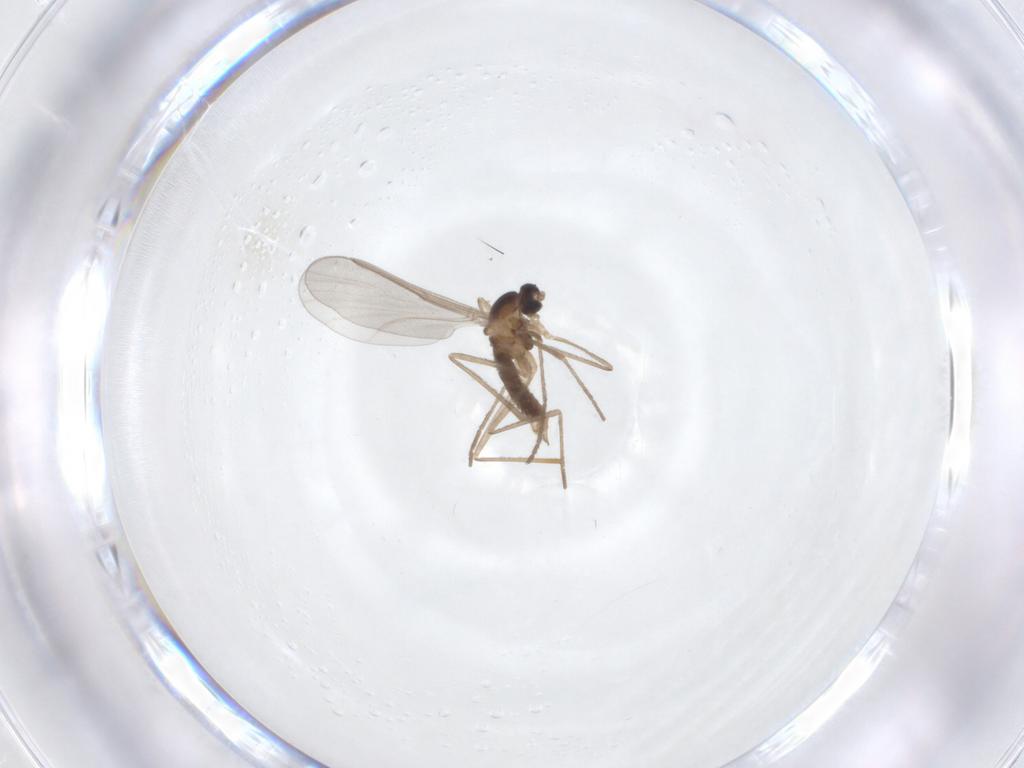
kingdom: Animalia
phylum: Arthropoda
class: Insecta
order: Diptera
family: Cecidomyiidae
